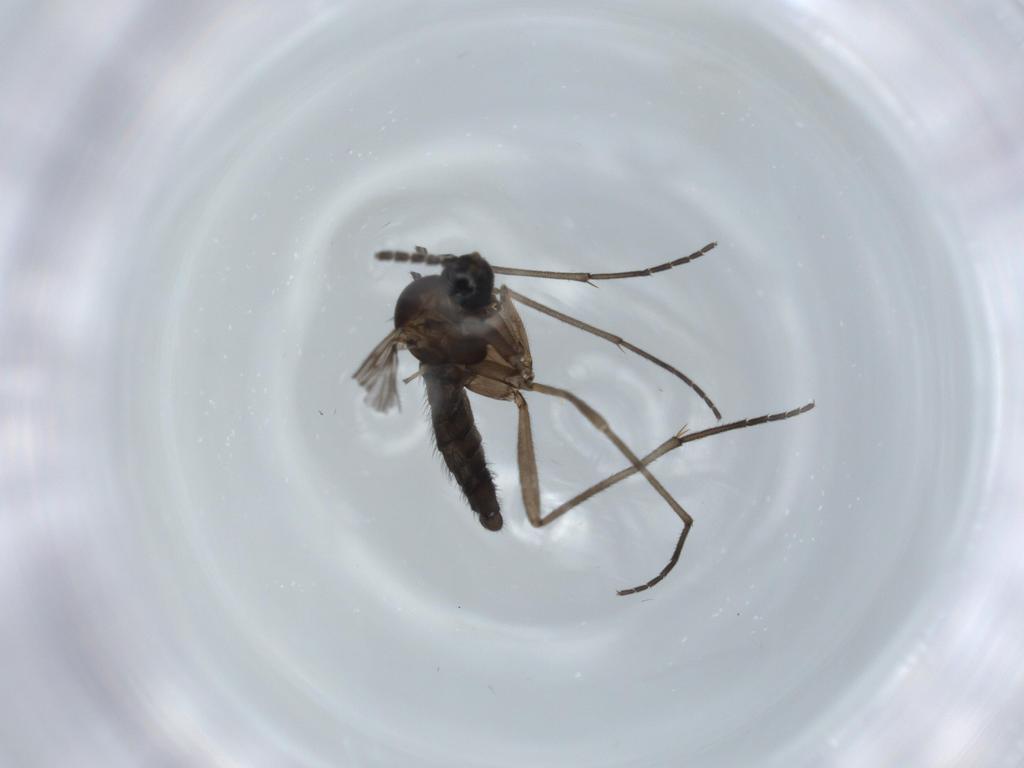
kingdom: Animalia
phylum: Arthropoda
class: Insecta
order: Diptera
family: Sciaridae
